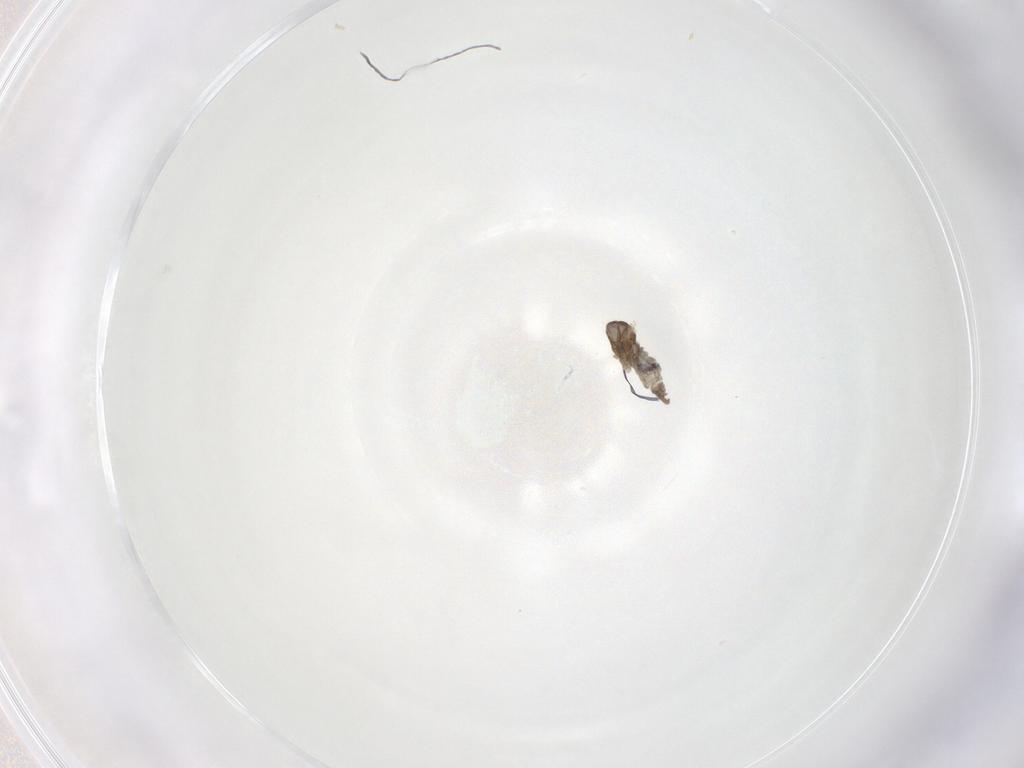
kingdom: Animalia
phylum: Arthropoda
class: Insecta
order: Diptera
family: Cecidomyiidae
